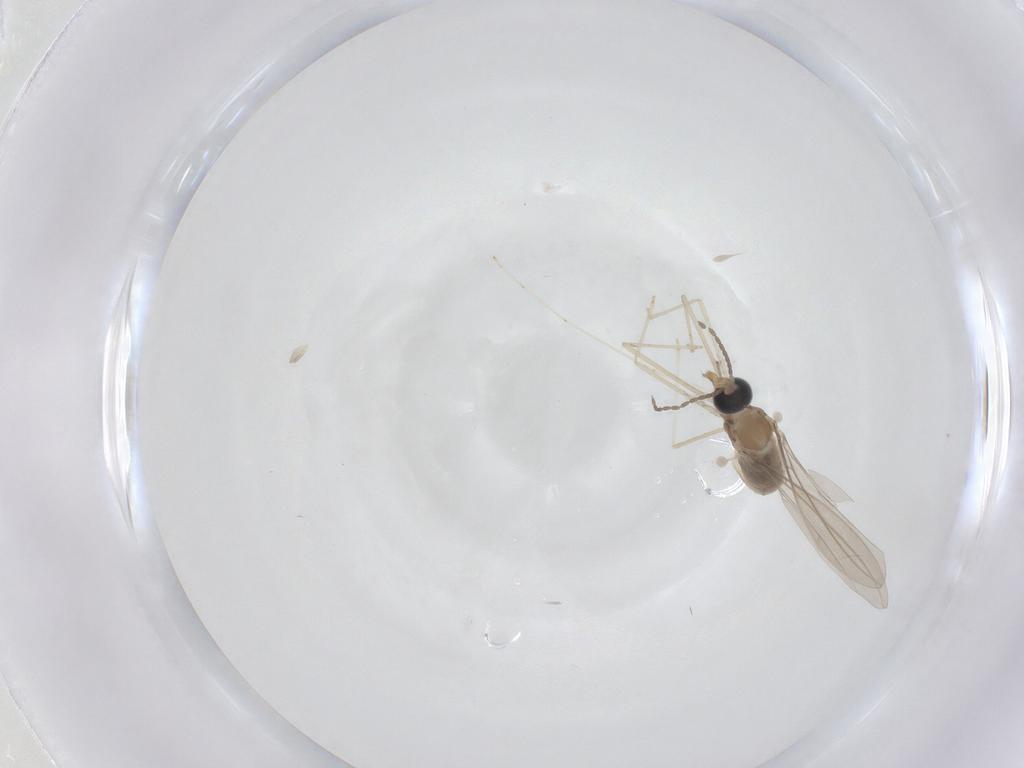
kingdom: Animalia
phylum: Arthropoda
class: Insecta
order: Diptera
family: Cecidomyiidae
